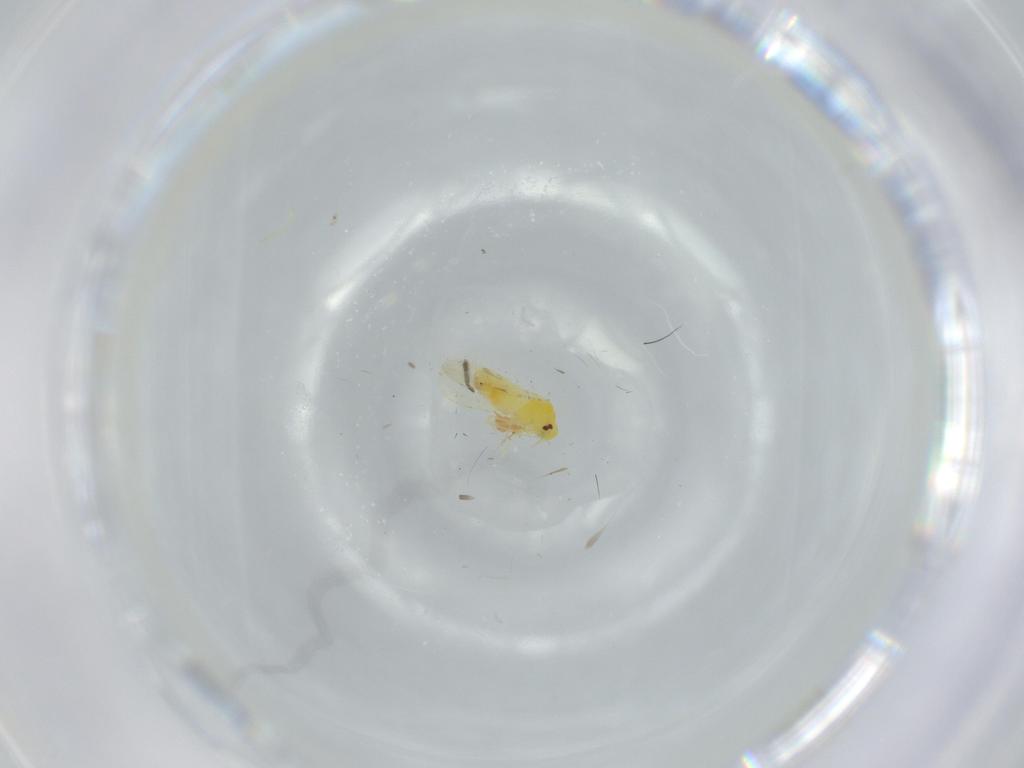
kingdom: Animalia
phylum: Arthropoda
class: Insecta
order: Hemiptera
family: Aleyrodidae
